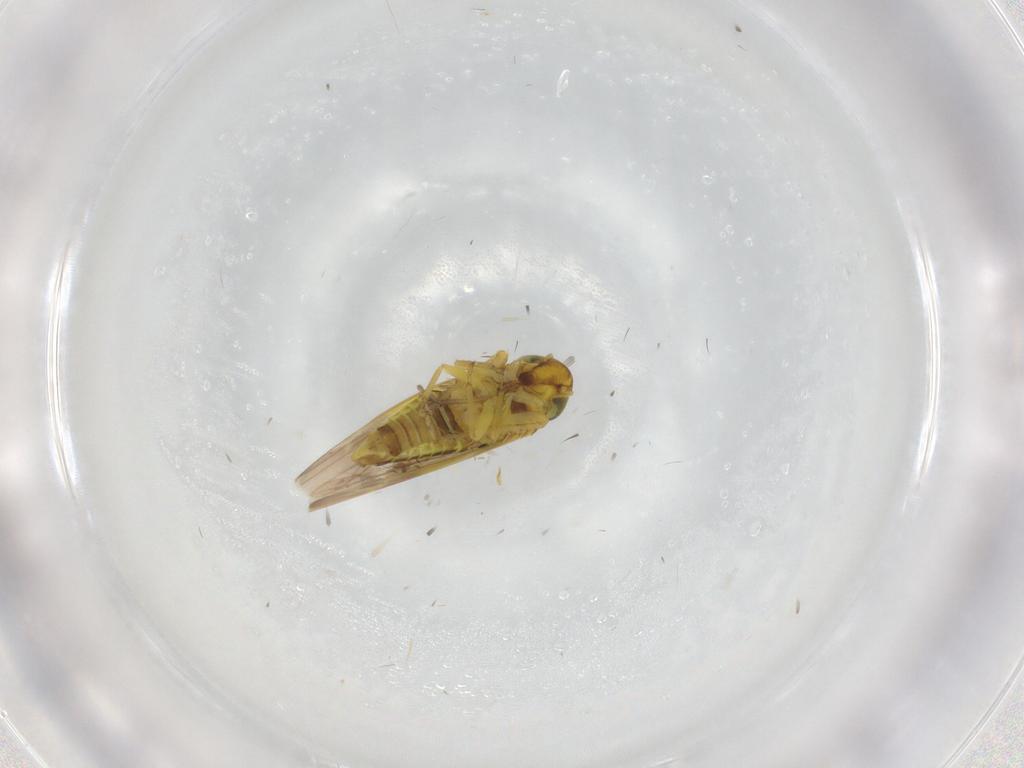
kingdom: Animalia
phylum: Arthropoda
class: Insecta
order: Hemiptera
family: Cicadellidae
